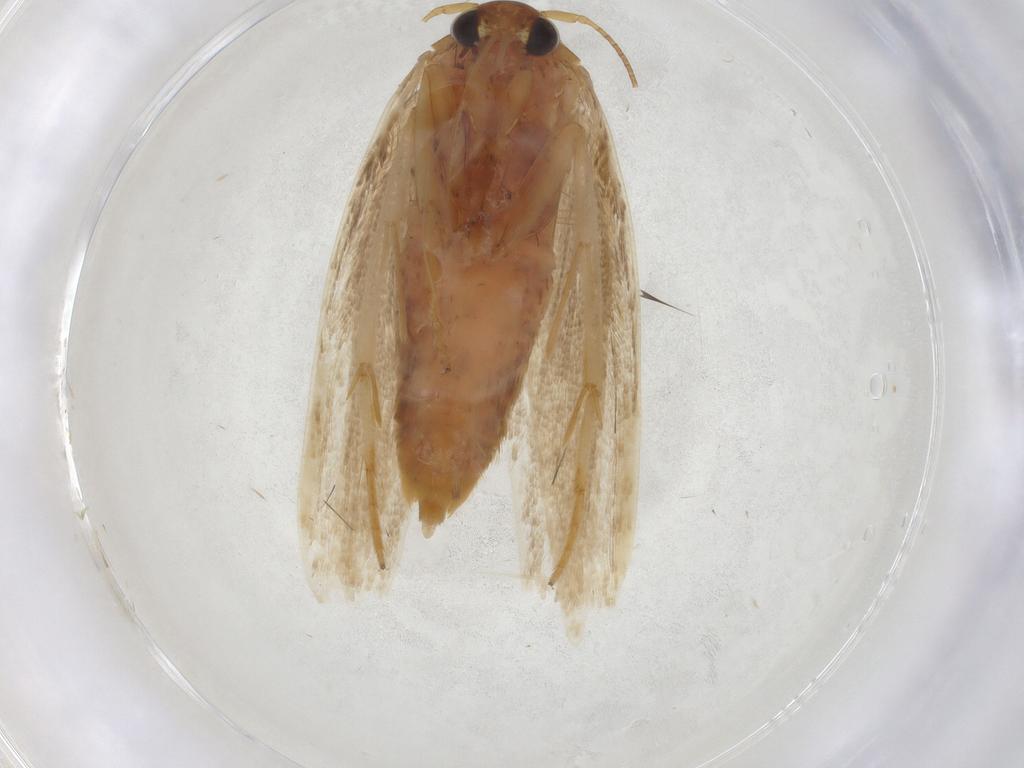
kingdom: Animalia
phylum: Arthropoda
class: Insecta
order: Lepidoptera
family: Blastobasidae
